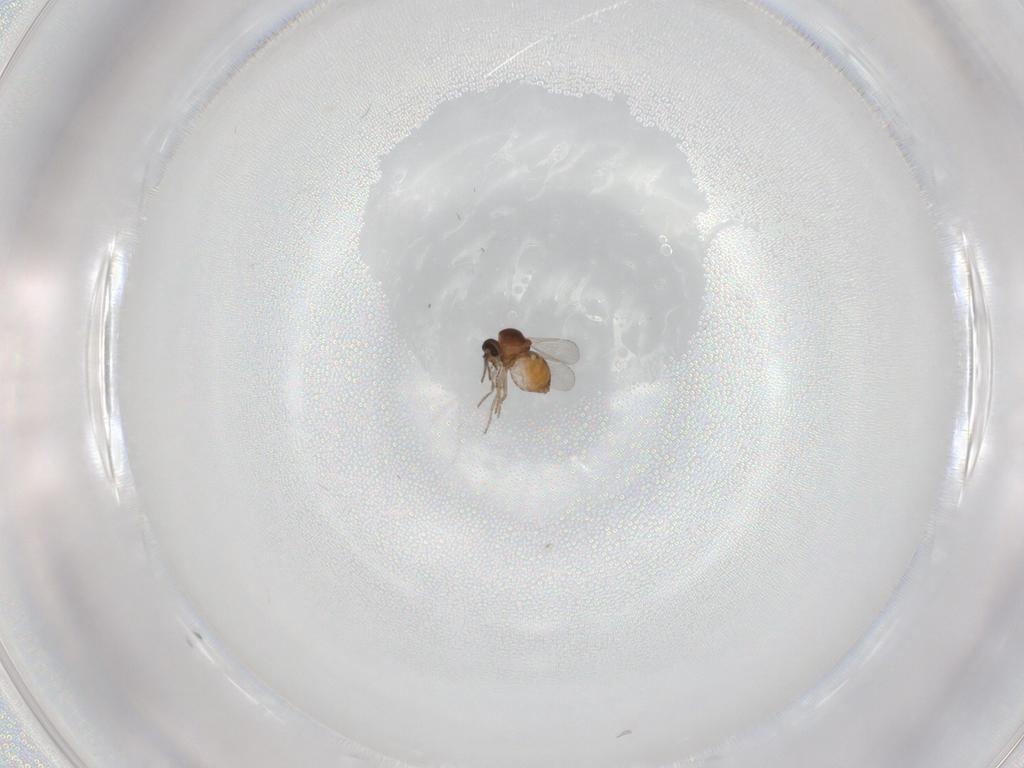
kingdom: Animalia
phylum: Arthropoda
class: Insecta
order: Diptera
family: Ceratopogonidae
